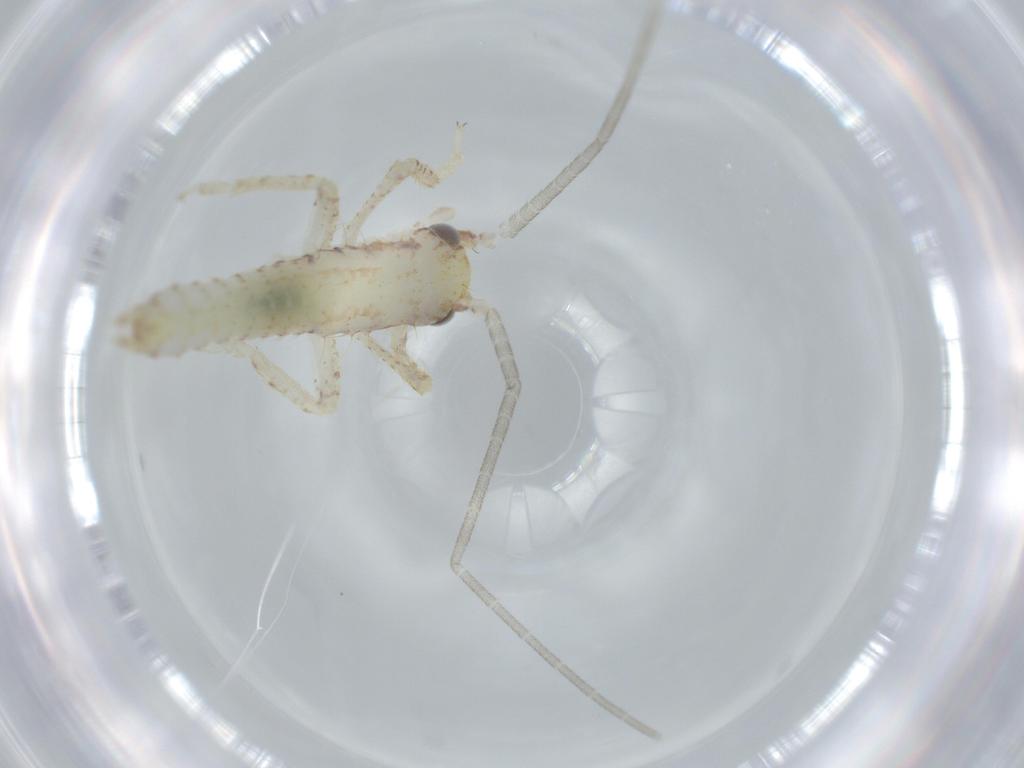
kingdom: Animalia
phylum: Arthropoda
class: Insecta
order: Orthoptera
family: Gryllidae
